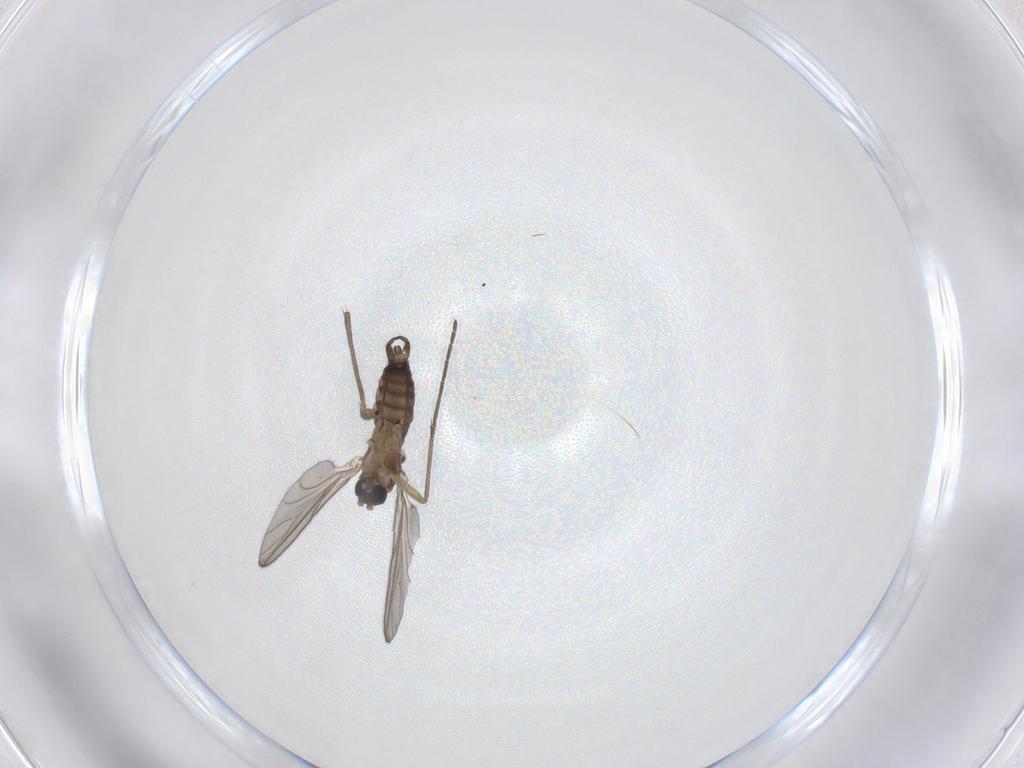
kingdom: Animalia
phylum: Arthropoda
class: Insecta
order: Diptera
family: Sciaridae
